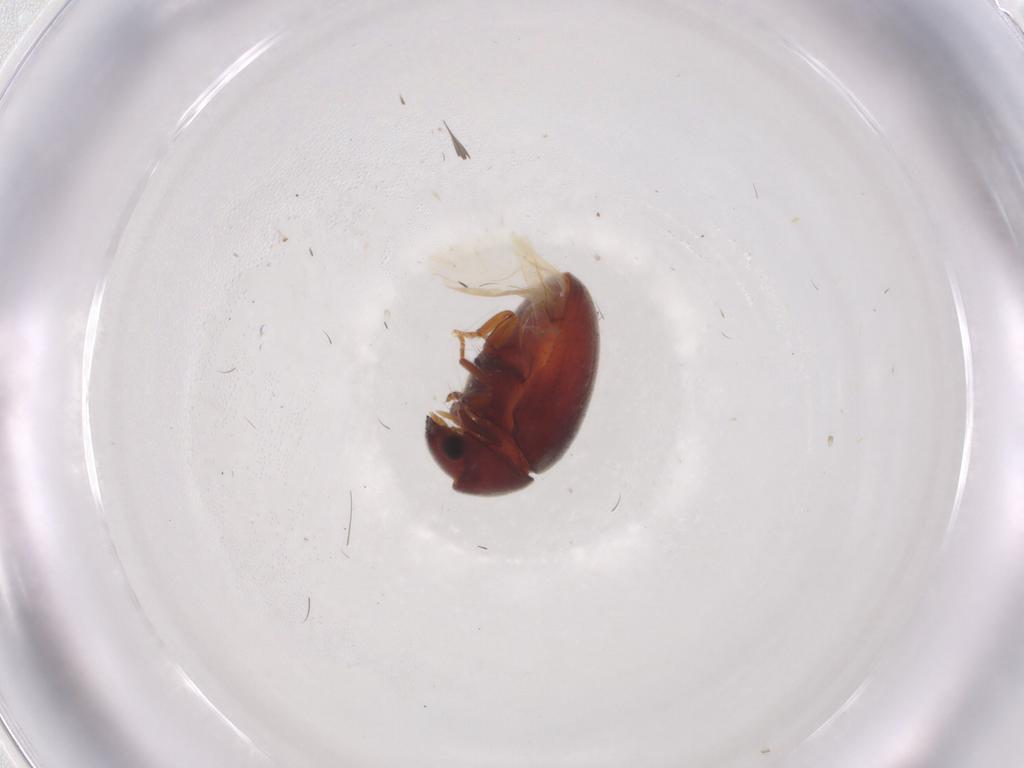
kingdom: Animalia
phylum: Arthropoda
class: Insecta
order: Coleoptera
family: Ptinidae
